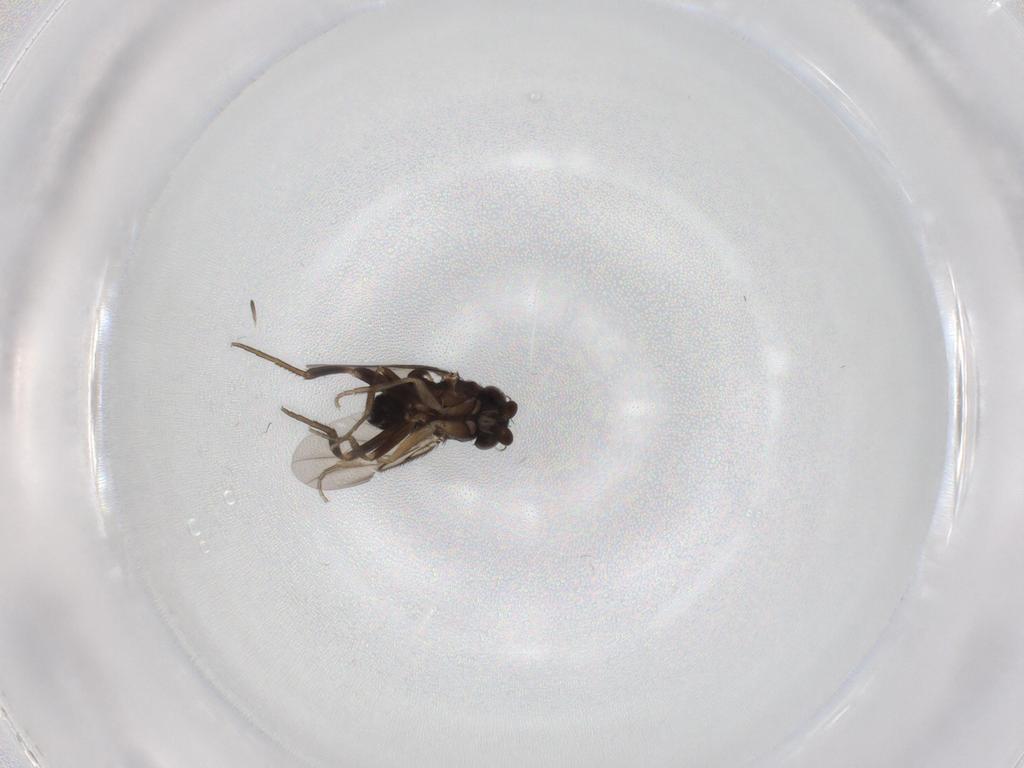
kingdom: Animalia
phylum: Arthropoda
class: Insecta
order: Diptera
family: Phoridae
